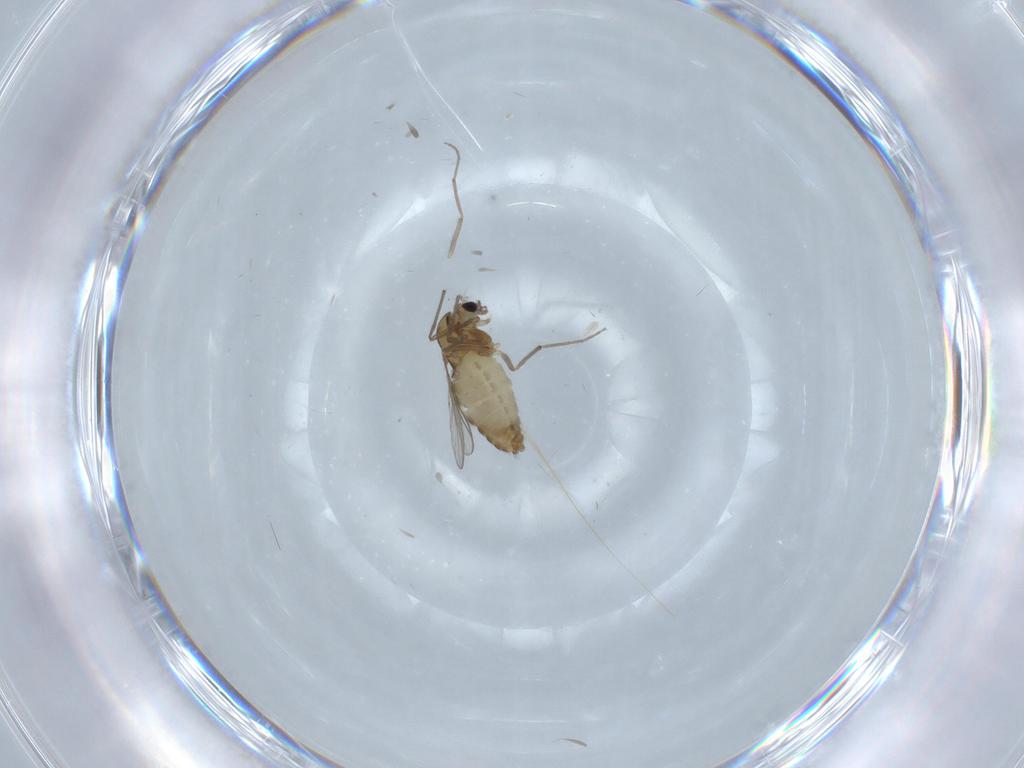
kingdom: Animalia
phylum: Arthropoda
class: Insecta
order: Diptera
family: Chironomidae
